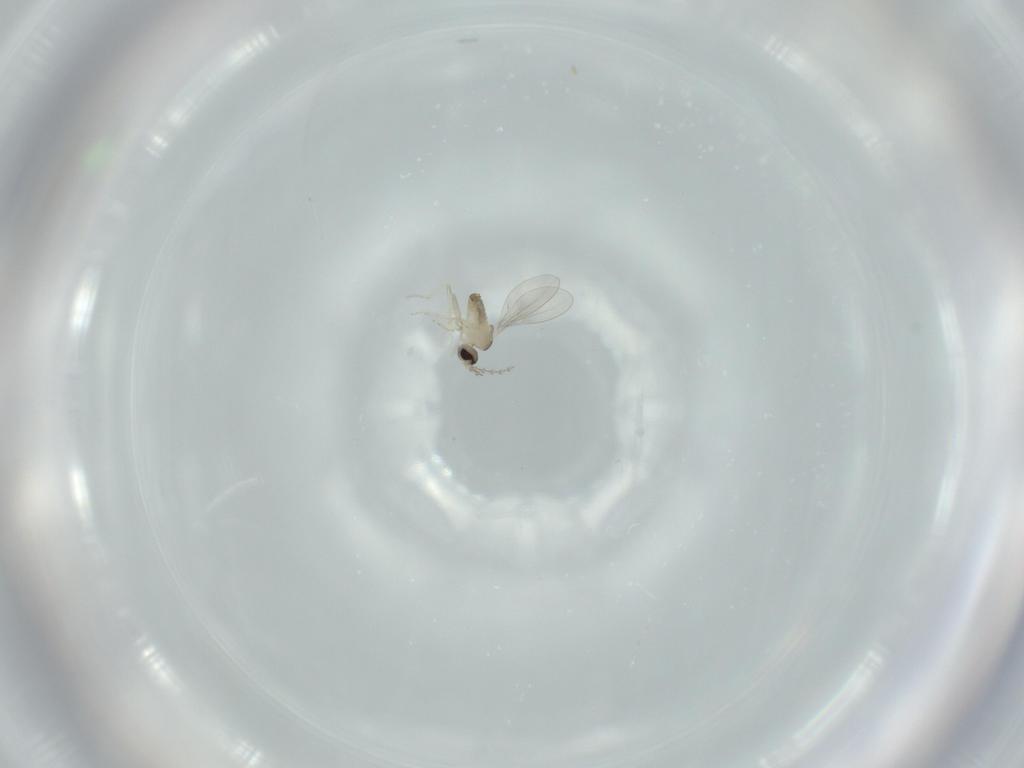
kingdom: Animalia
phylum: Arthropoda
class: Insecta
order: Diptera
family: Cecidomyiidae
